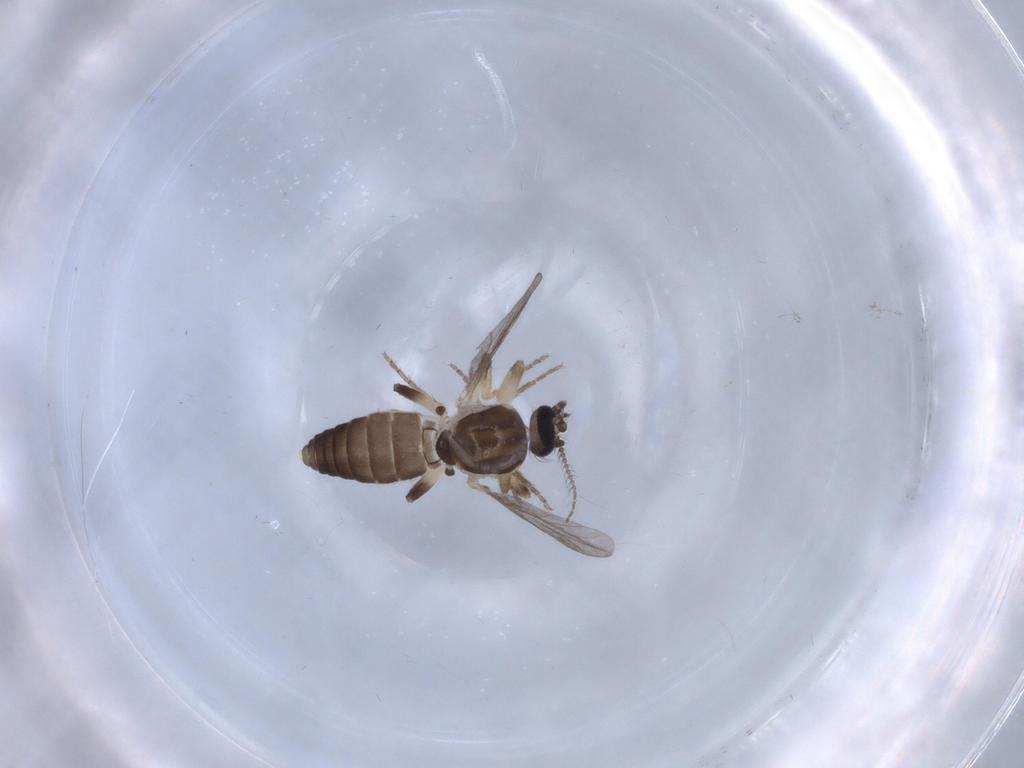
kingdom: Animalia
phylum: Arthropoda
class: Insecta
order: Diptera
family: Ceratopogonidae
